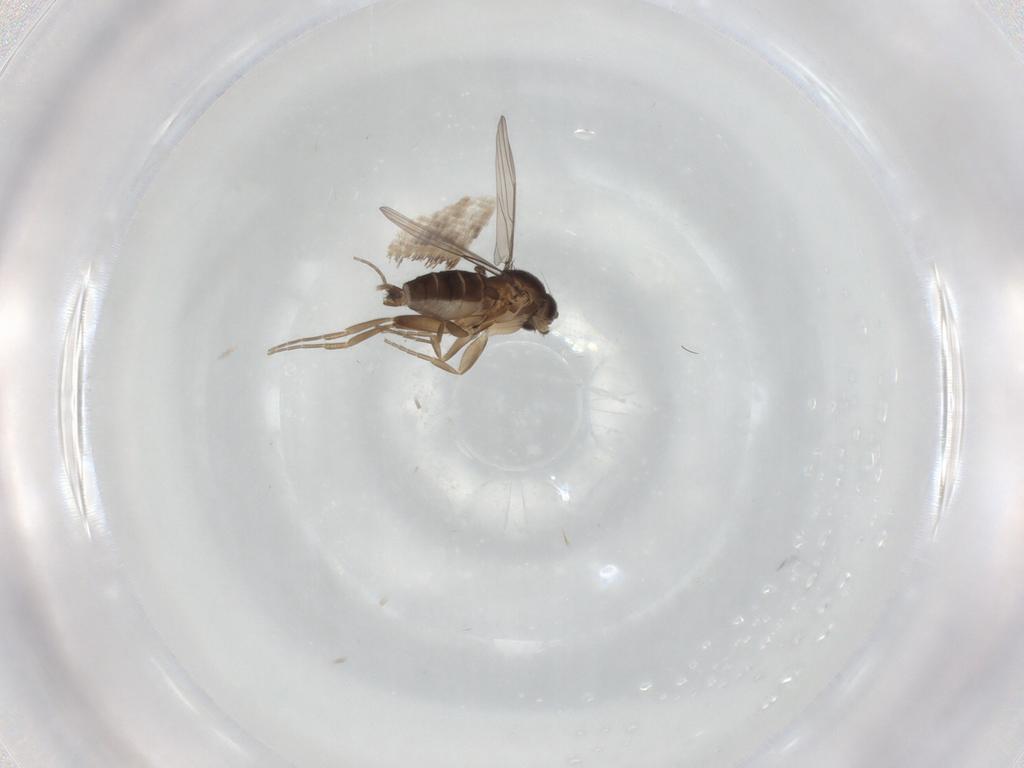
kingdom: Animalia
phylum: Arthropoda
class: Insecta
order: Diptera
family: Phoridae
